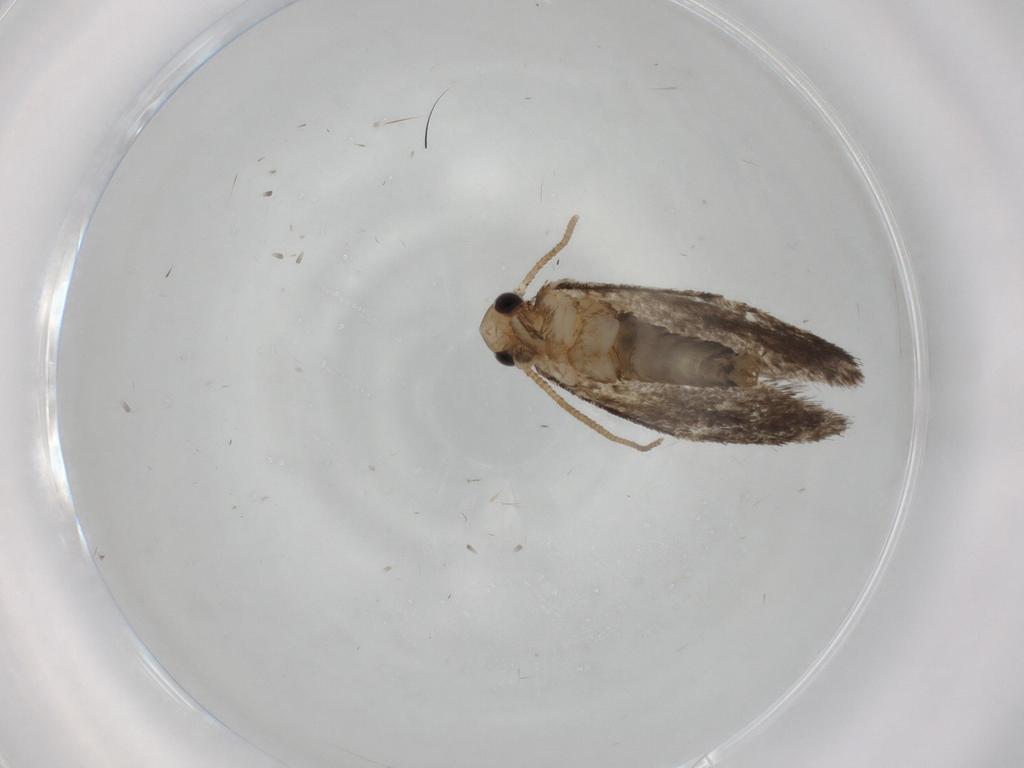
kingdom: Animalia
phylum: Arthropoda
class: Insecta
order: Lepidoptera
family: Tineidae
